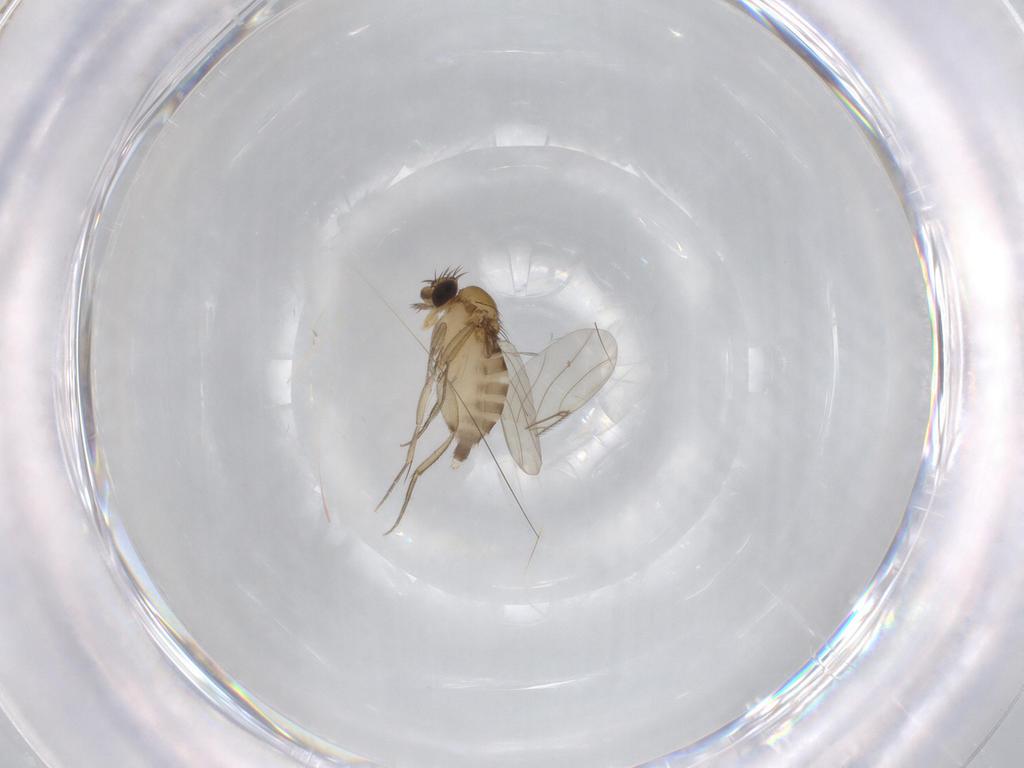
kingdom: Animalia
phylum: Arthropoda
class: Insecta
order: Diptera
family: Phoridae
